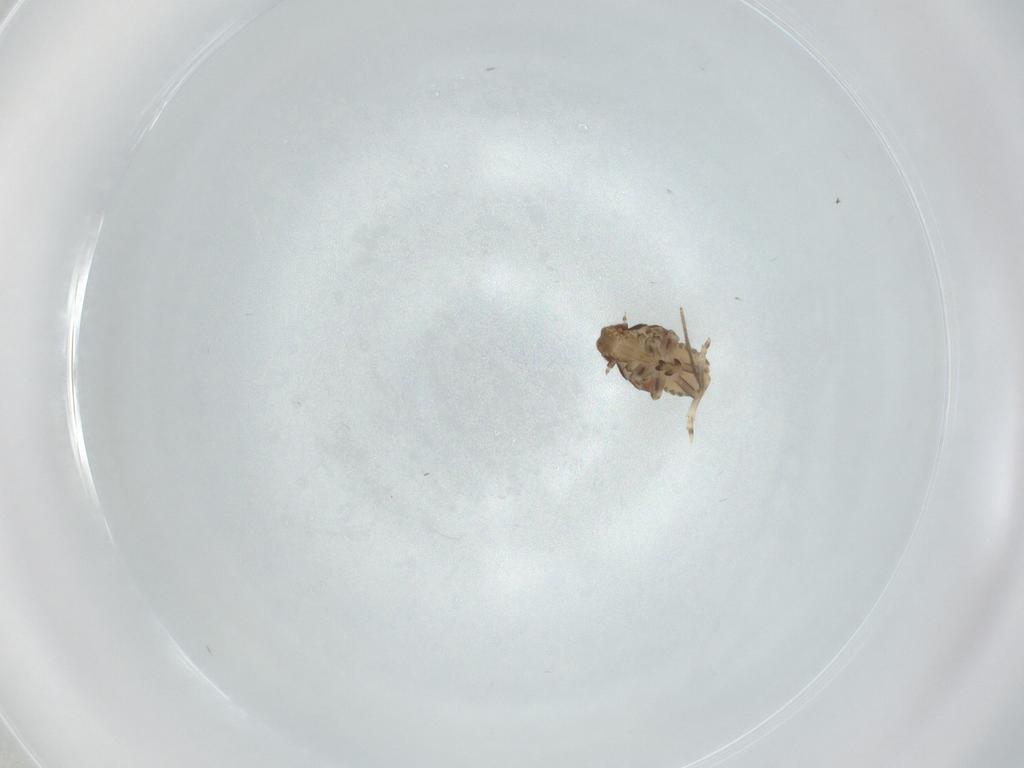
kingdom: Animalia
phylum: Arthropoda
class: Insecta
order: Hemiptera
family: Flatidae
